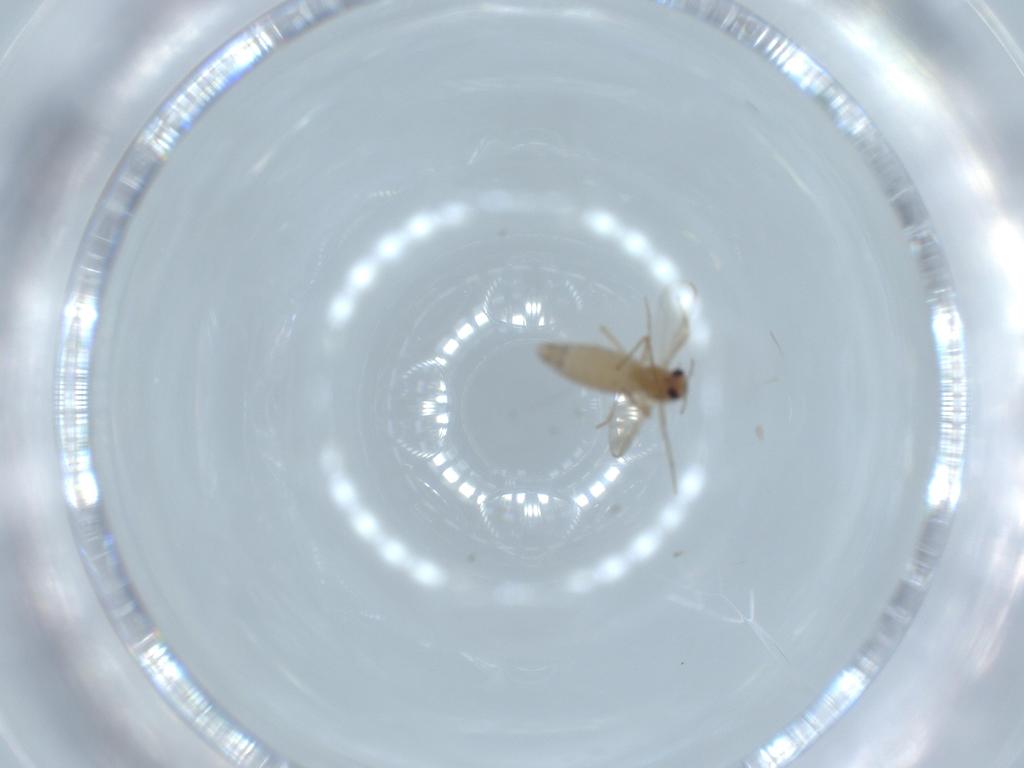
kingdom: Animalia
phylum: Arthropoda
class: Insecta
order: Diptera
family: Chironomidae
